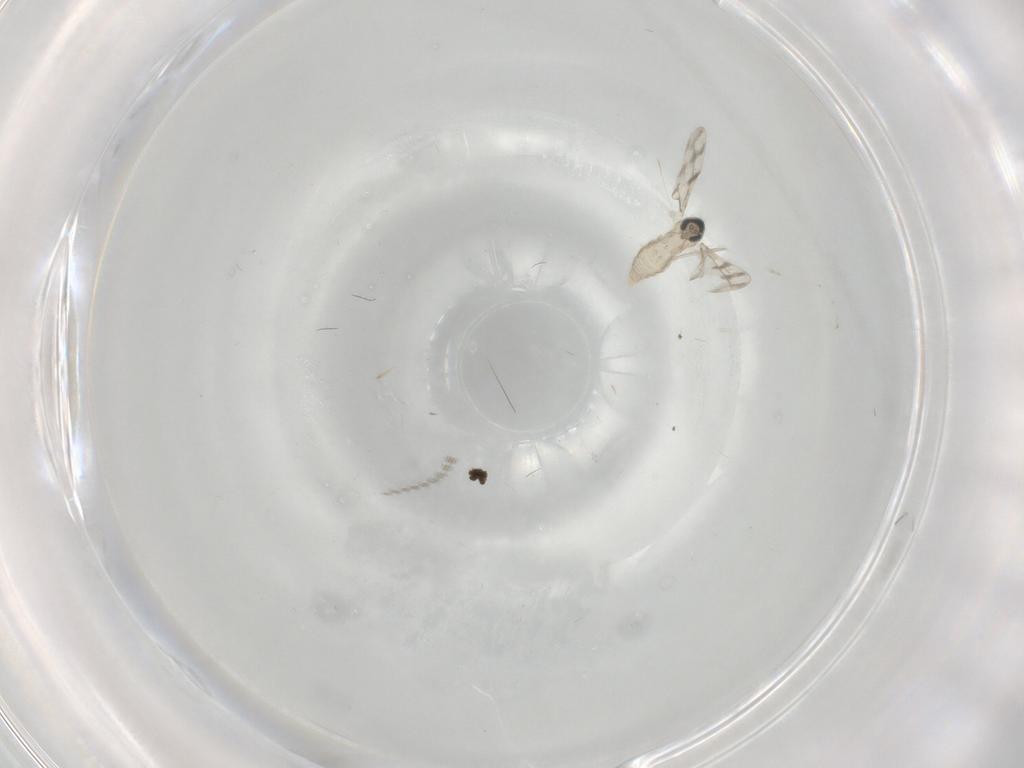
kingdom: Animalia
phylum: Arthropoda
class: Insecta
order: Diptera
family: Cecidomyiidae
